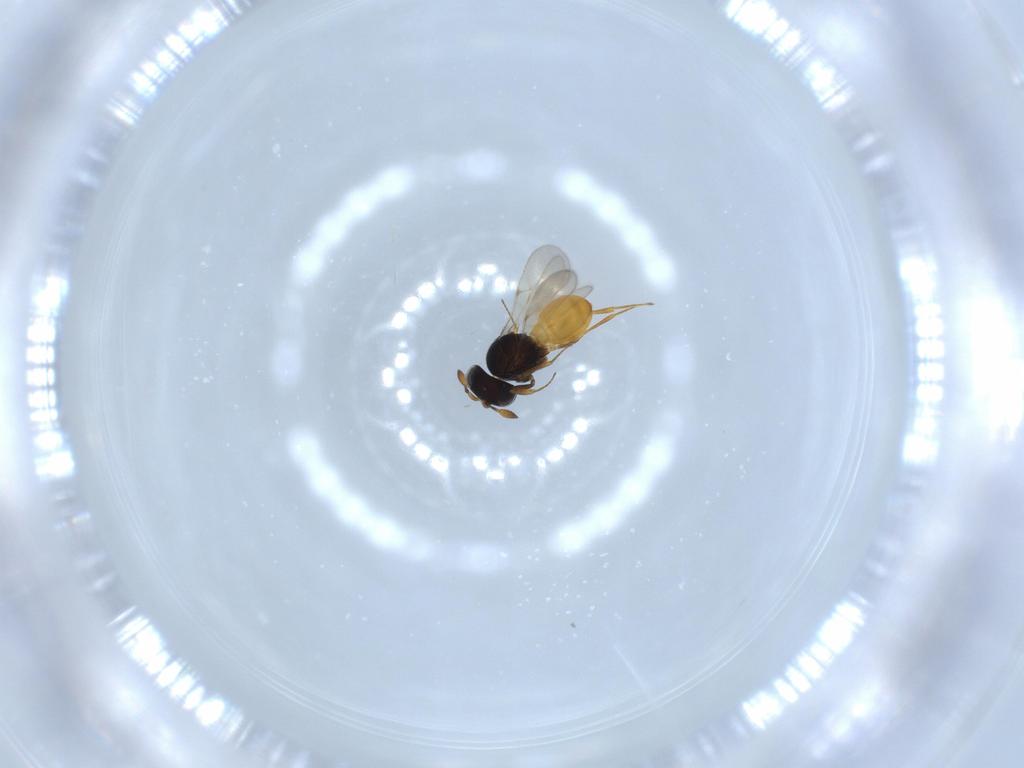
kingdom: Animalia
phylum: Arthropoda
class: Insecta
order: Hymenoptera
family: Scelionidae
